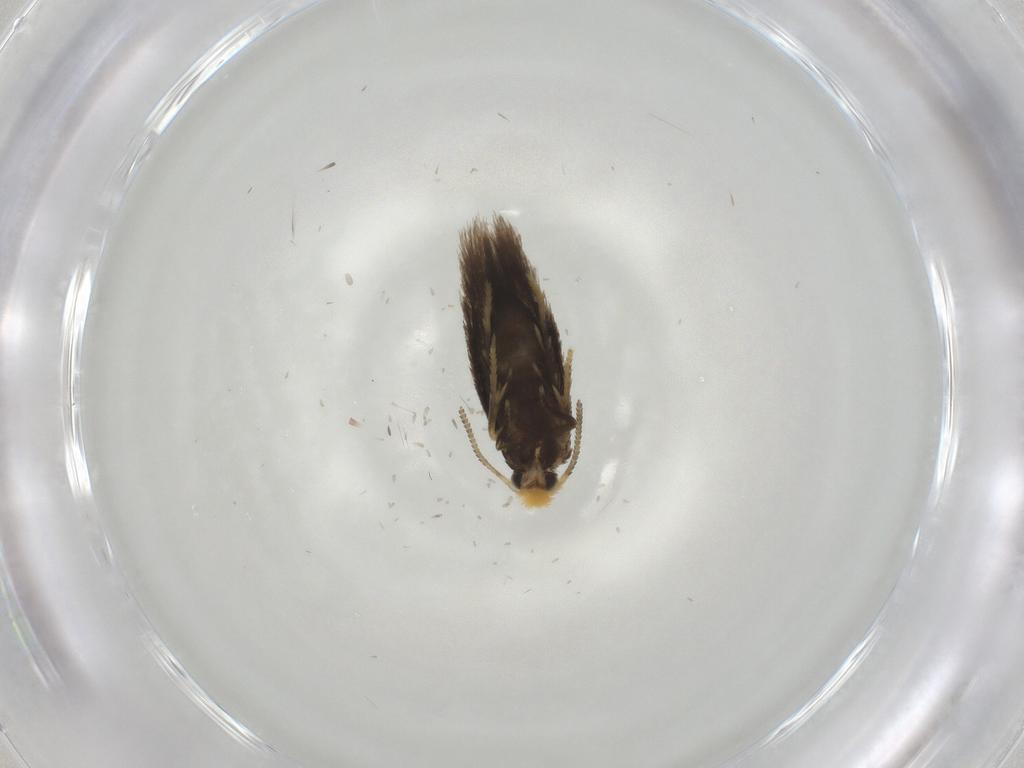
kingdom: Animalia
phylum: Arthropoda
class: Insecta
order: Lepidoptera
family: Nepticulidae
